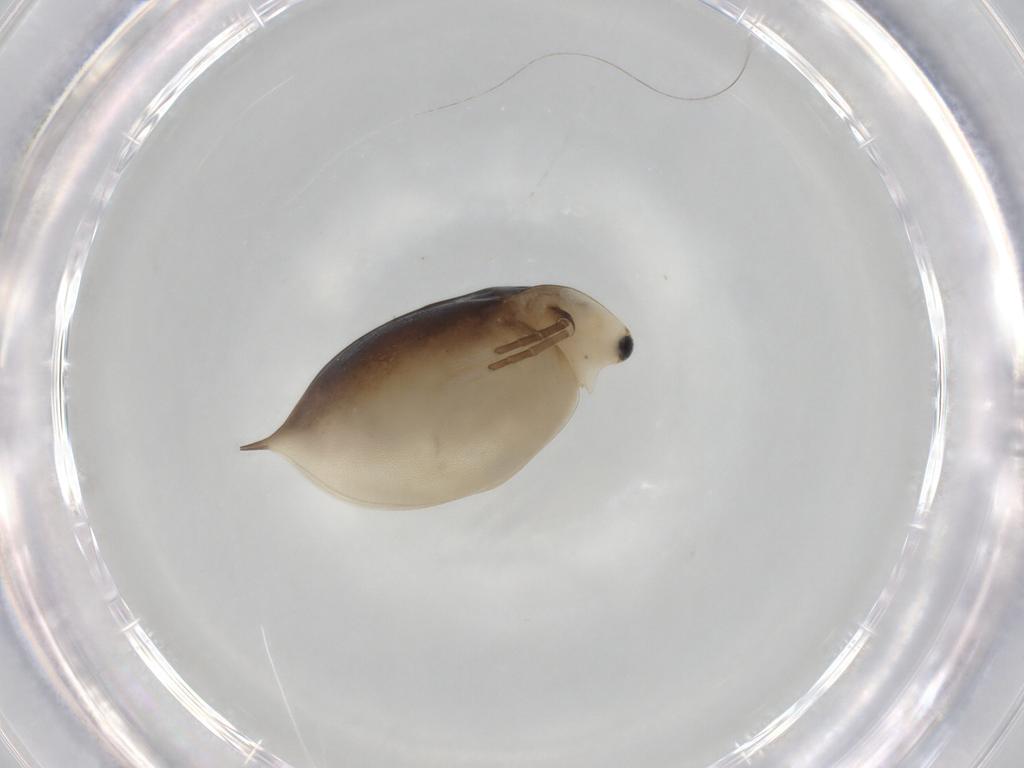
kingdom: Animalia
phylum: Arthropoda
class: Branchiopoda
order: Diplostraca
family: Daphniidae
